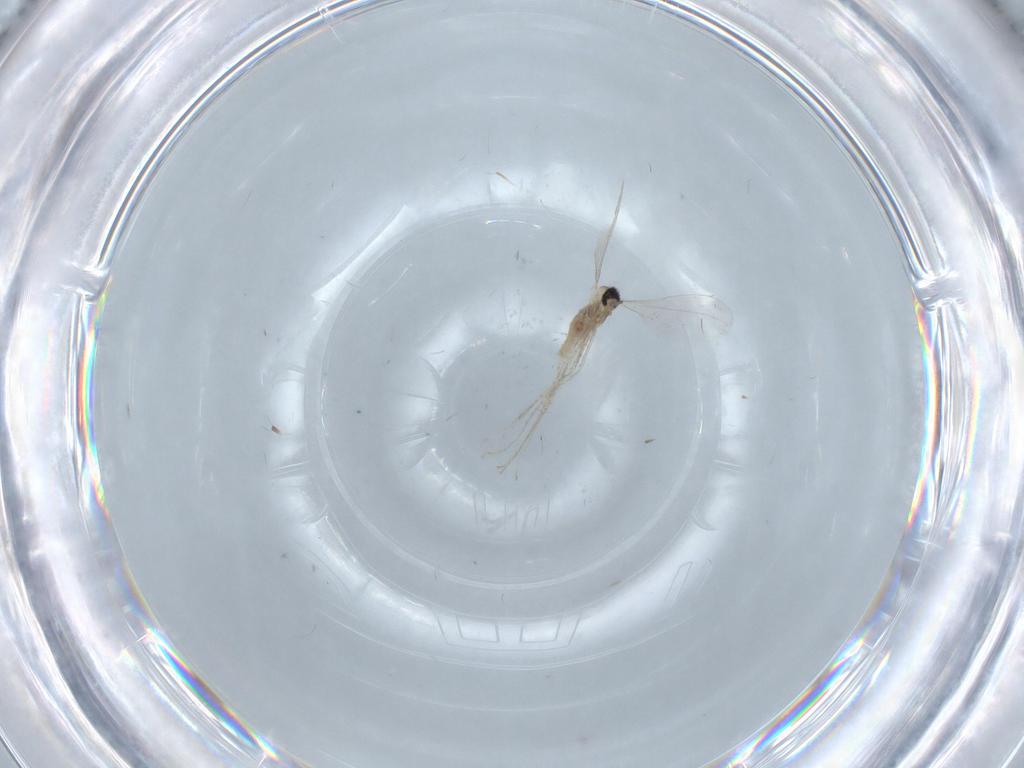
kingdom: Animalia
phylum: Arthropoda
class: Insecta
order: Diptera
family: Chironomidae
